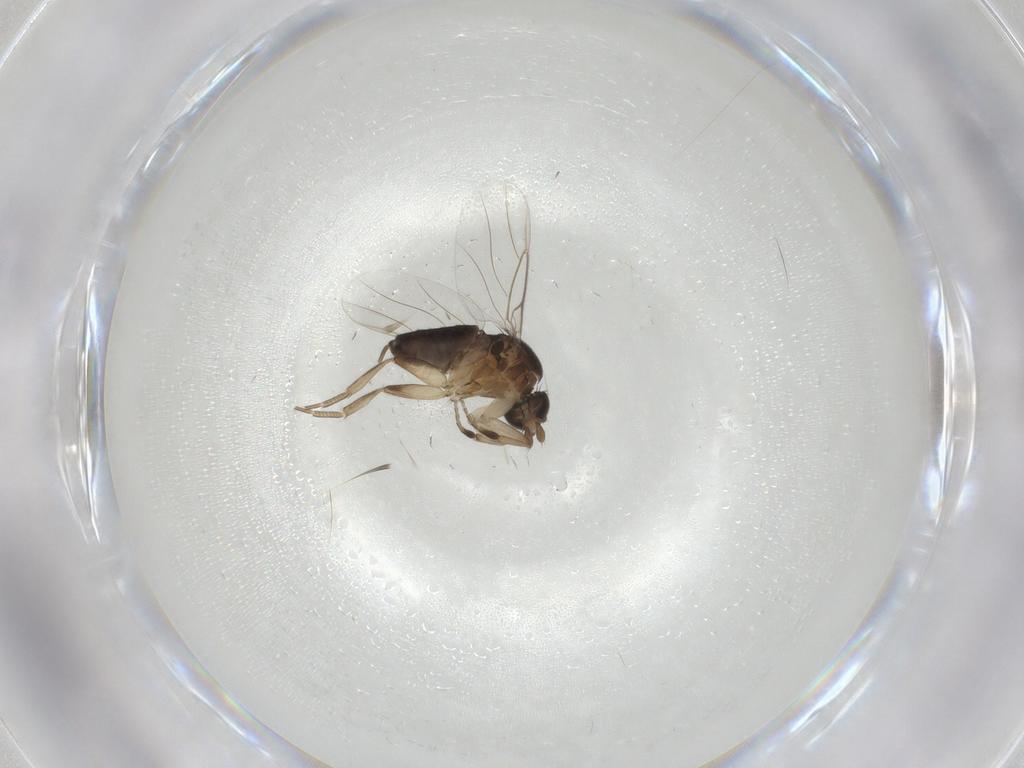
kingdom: Animalia
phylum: Arthropoda
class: Insecta
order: Diptera
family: Phoridae
